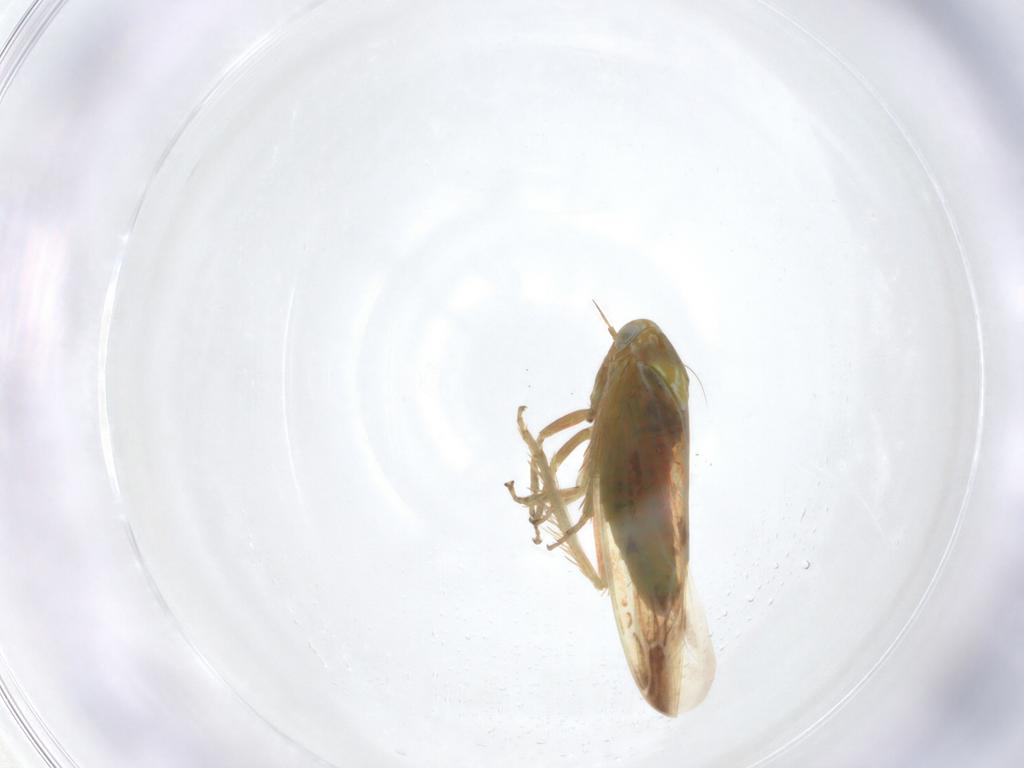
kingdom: Animalia
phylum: Arthropoda
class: Insecta
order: Hemiptera
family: Cicadellidae
